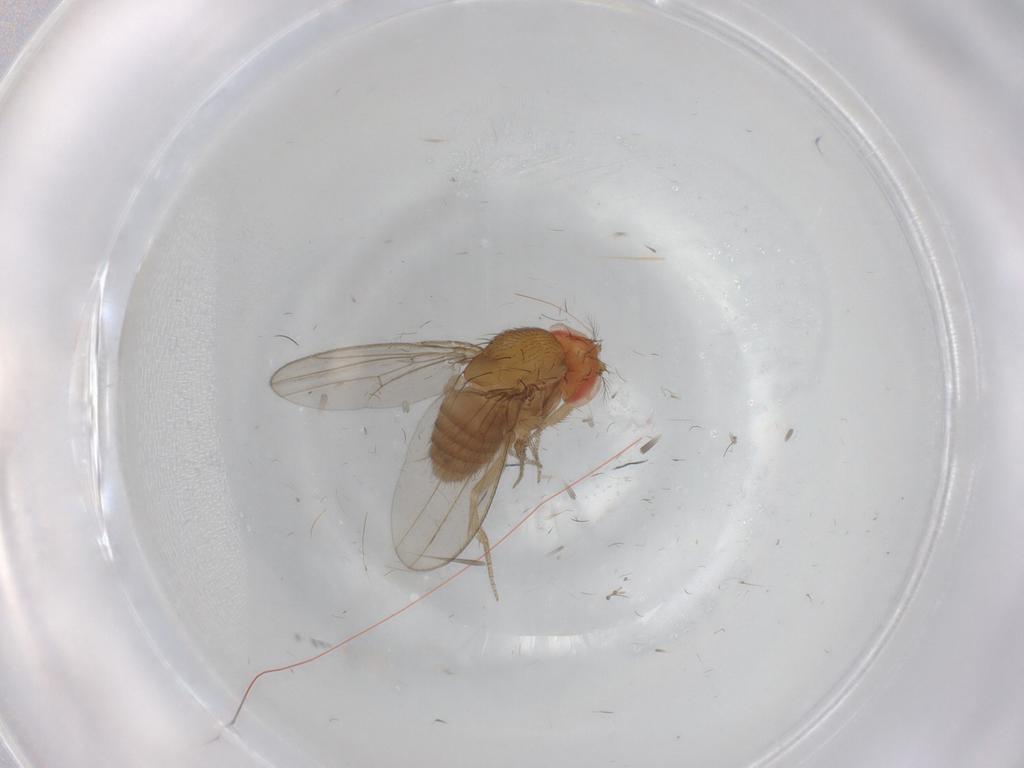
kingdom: Animalia
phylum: Arthropoda
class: Insecta
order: Diptera
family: Drosophilidae
